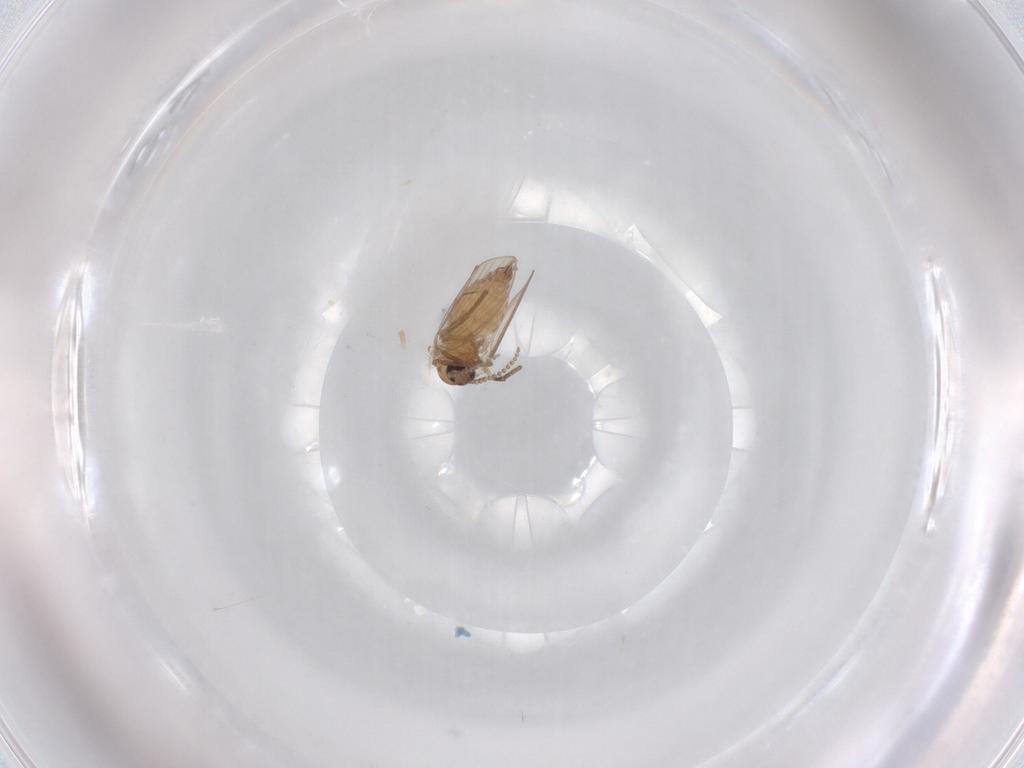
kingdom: Animalia
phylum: Arthropoda
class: Insecta
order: Diptera
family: Psychodidae
